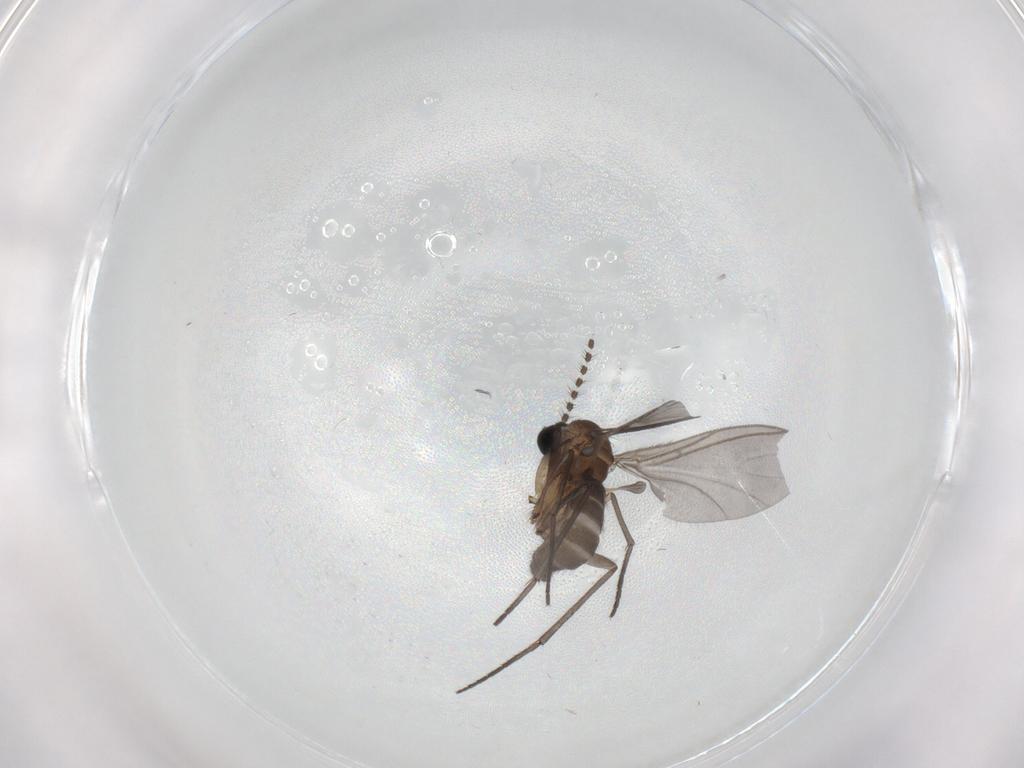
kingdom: Animalia
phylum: Arthropoda
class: Insecta
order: Diptera
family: Sciaridae
